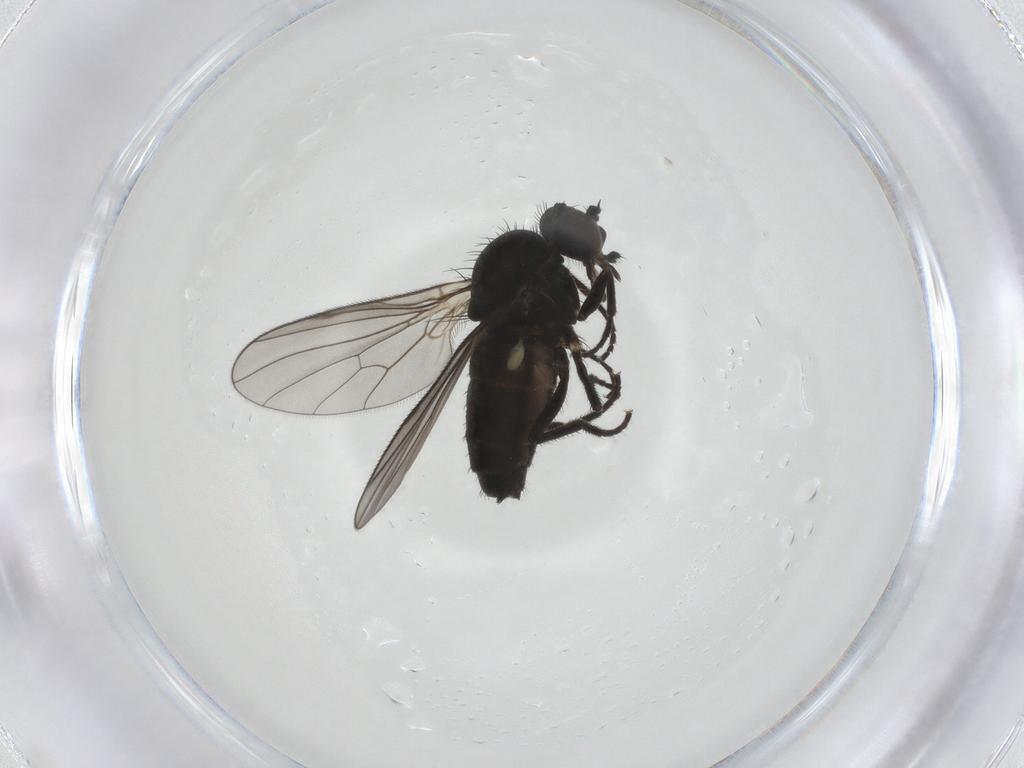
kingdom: Animalia
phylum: Arthropoda
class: Insecta
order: Diptera
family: Dolichopodidae
